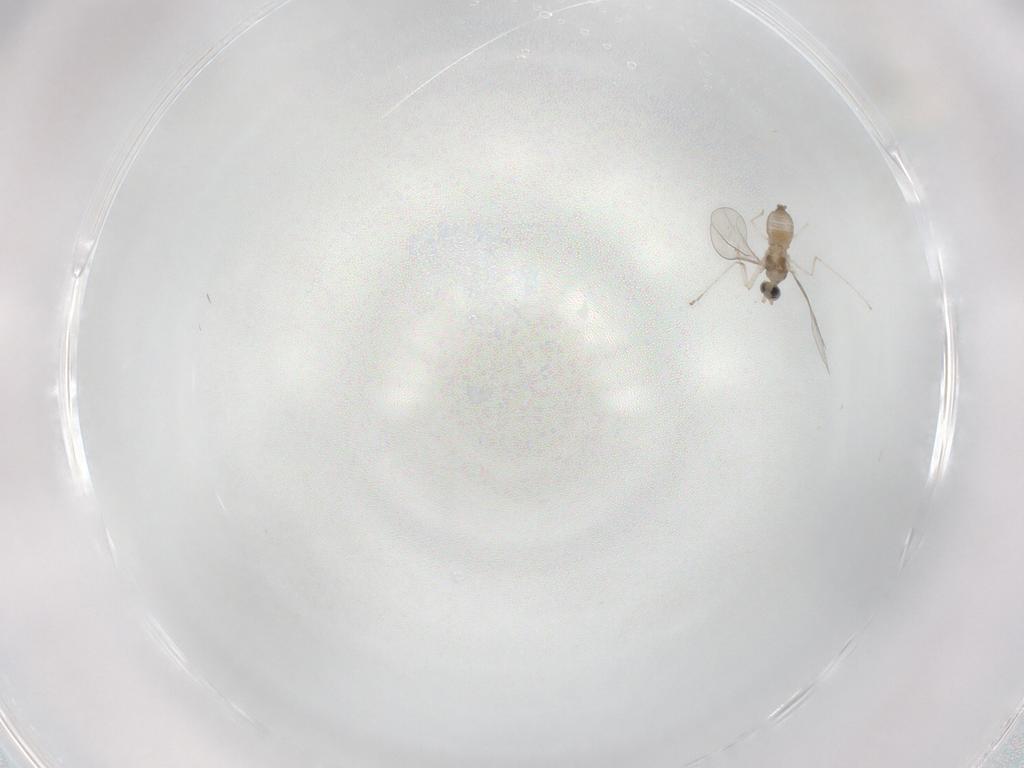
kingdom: Animalia
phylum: Arthropoda
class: Insecta
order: Diptera
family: Cecidomyiidae
